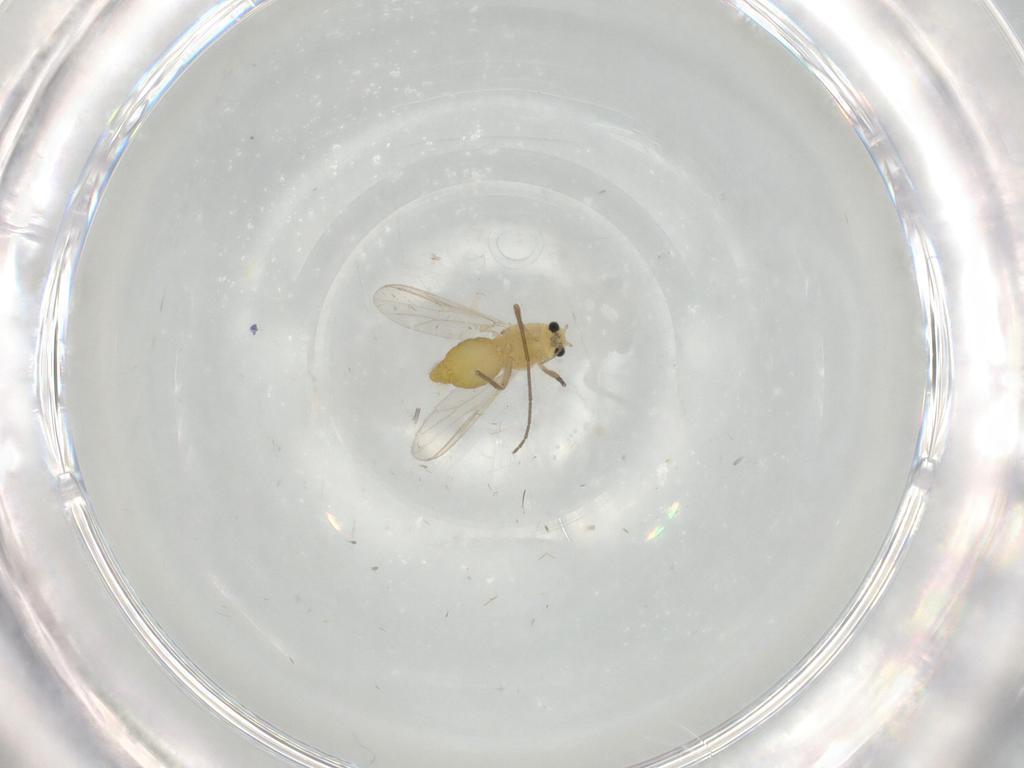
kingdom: Animalia
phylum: Arthropoda
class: Insecta
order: Diptera
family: Chironomidae
